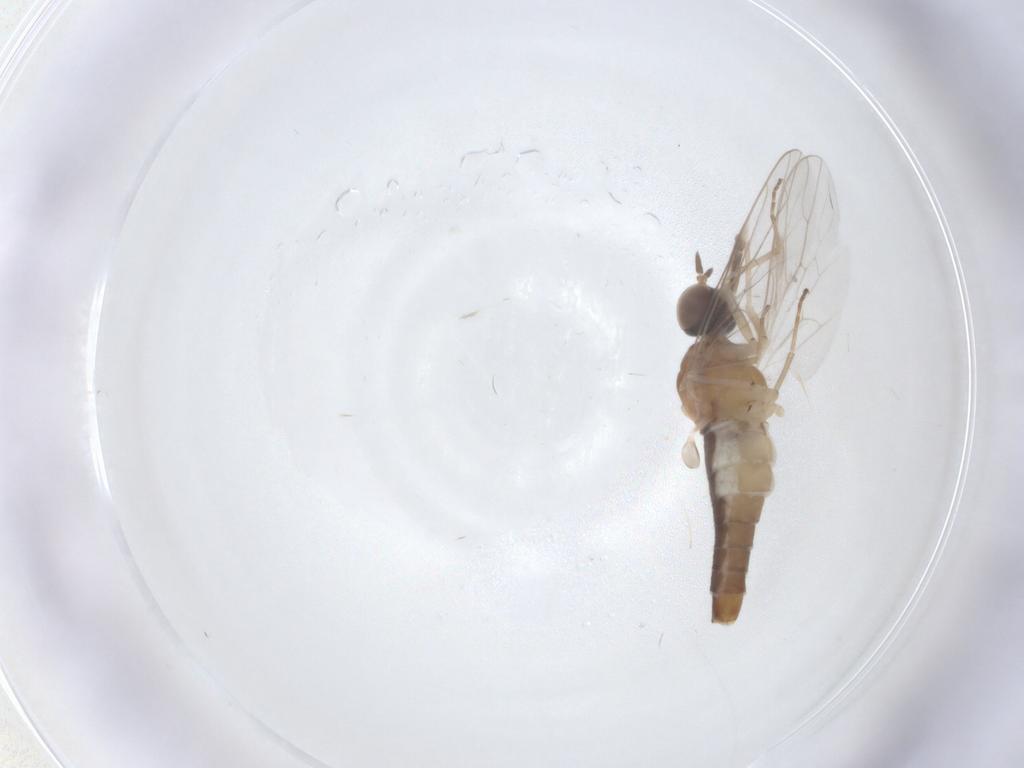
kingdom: Animalia
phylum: Arthropoda
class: Insecta
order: Diptera
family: Scenopinidae
